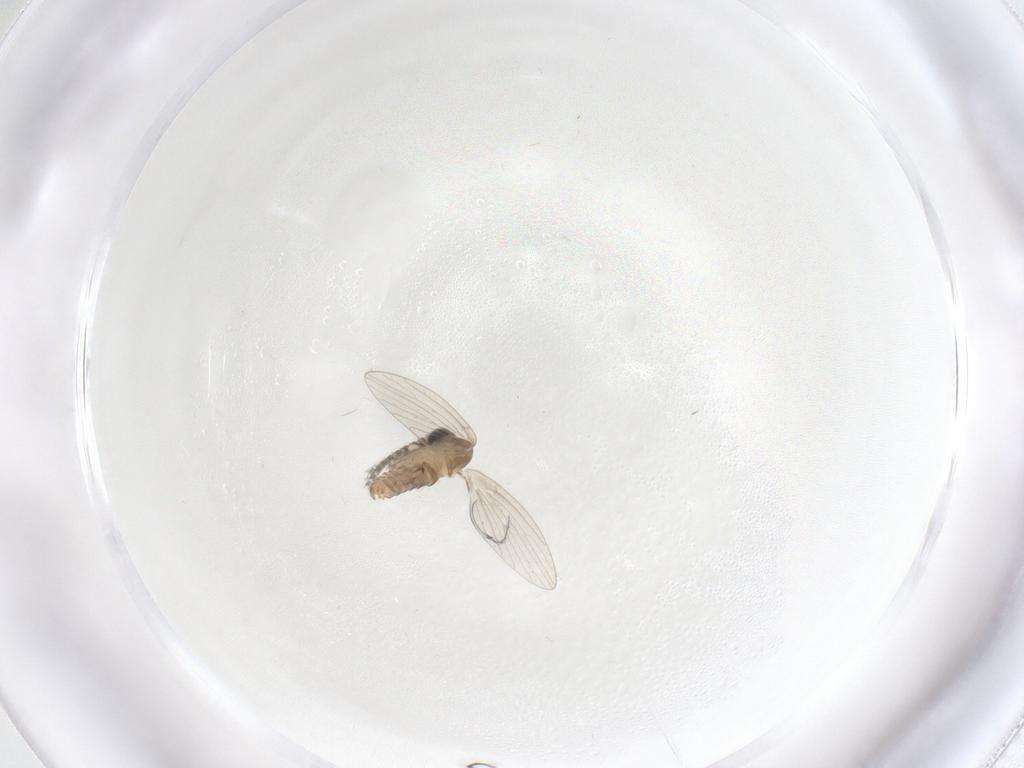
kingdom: Animalia
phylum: Arthropoda
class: Insecta
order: Diptera
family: Psychodidae
